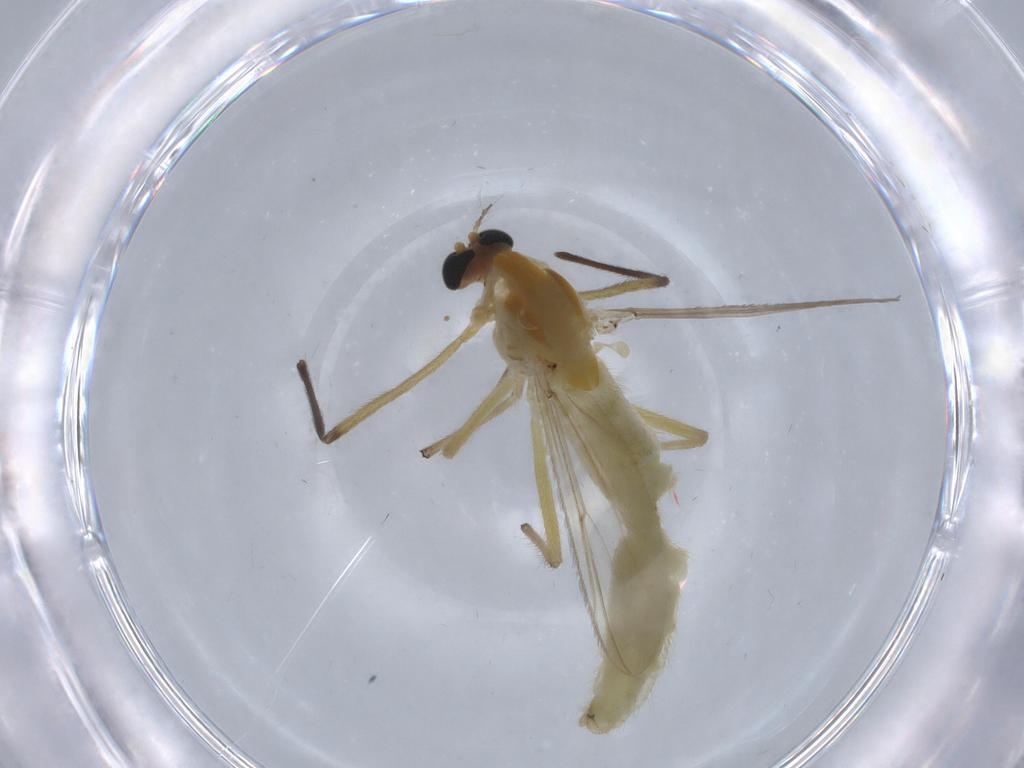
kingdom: Animalia
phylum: Arthropoda
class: Insecta
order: Diptera
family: Phoridae
